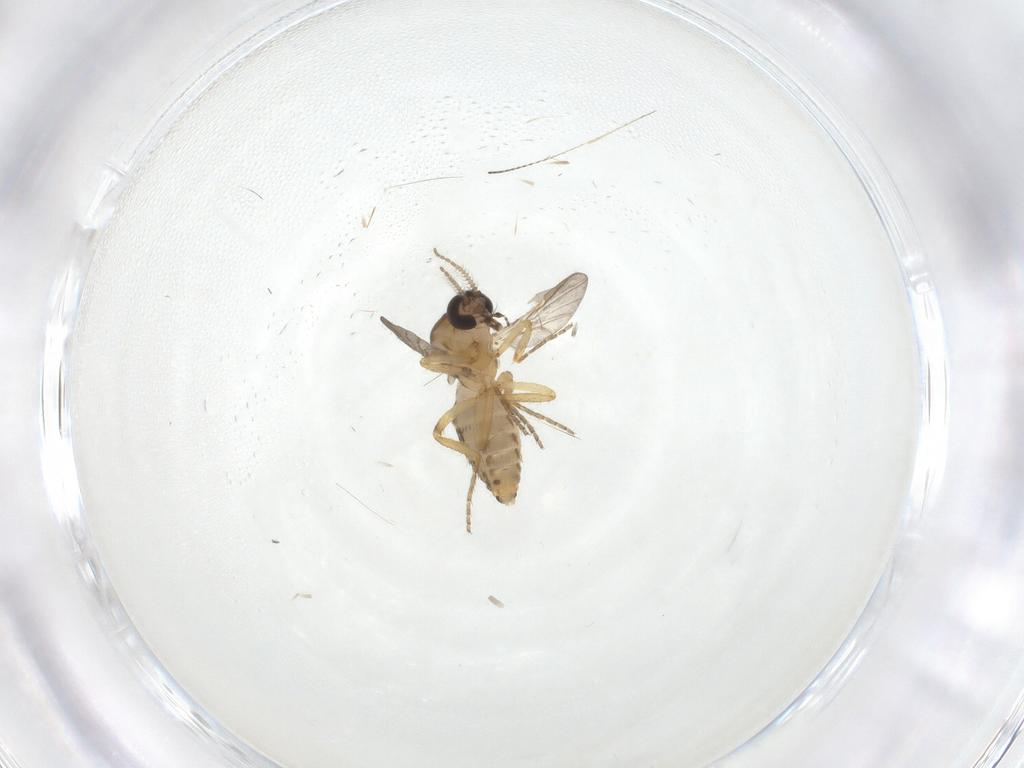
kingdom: Animalia
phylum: Arthropoda
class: Insecta
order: Diptera
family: Ceratopogonidae
